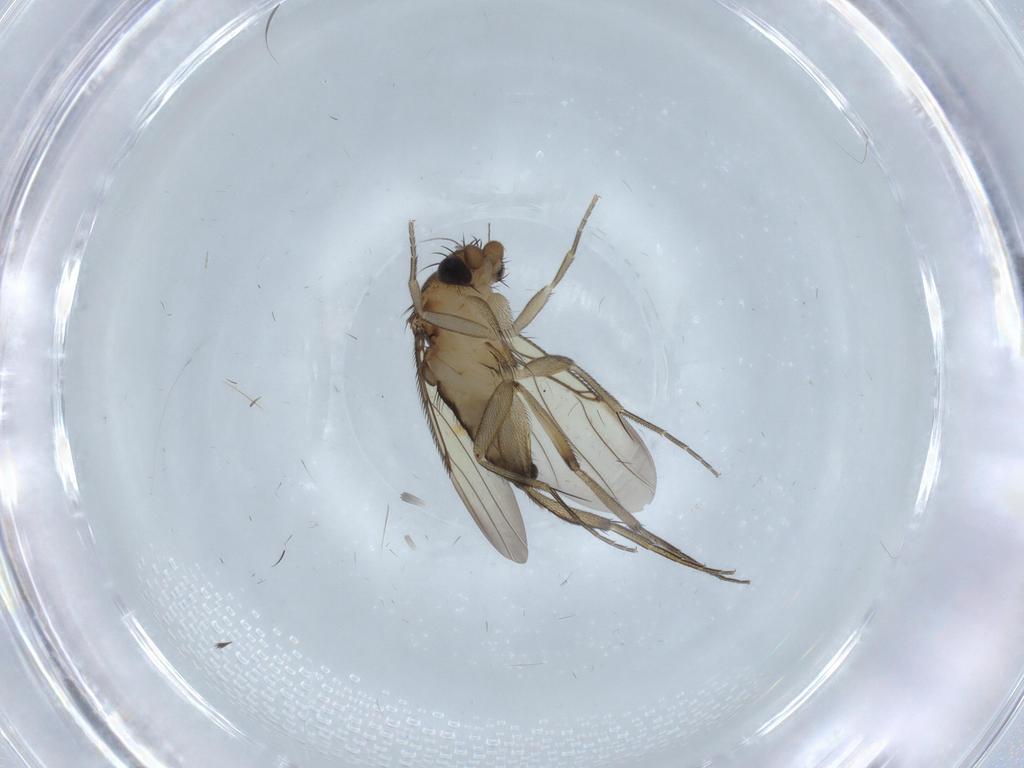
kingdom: Animalia
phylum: Arthropoda
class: Insecta
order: Diptera
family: Phoridae
